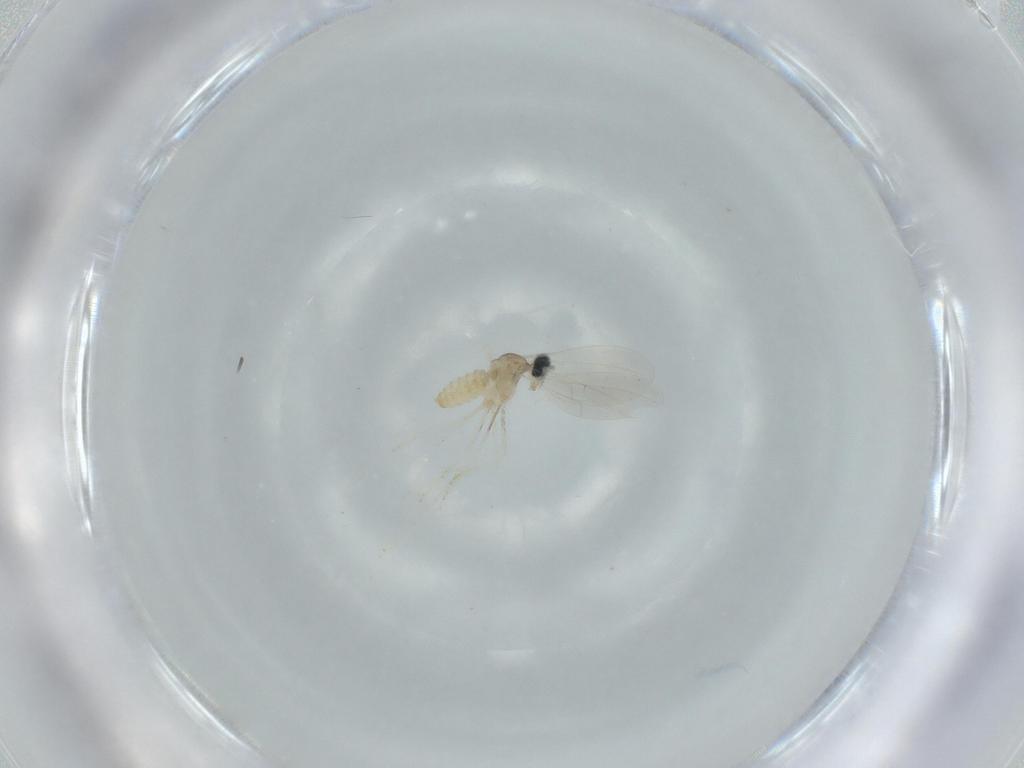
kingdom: Animalia
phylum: Arthropoda
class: Insecta
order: Diptera
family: Cecidomyiidae
